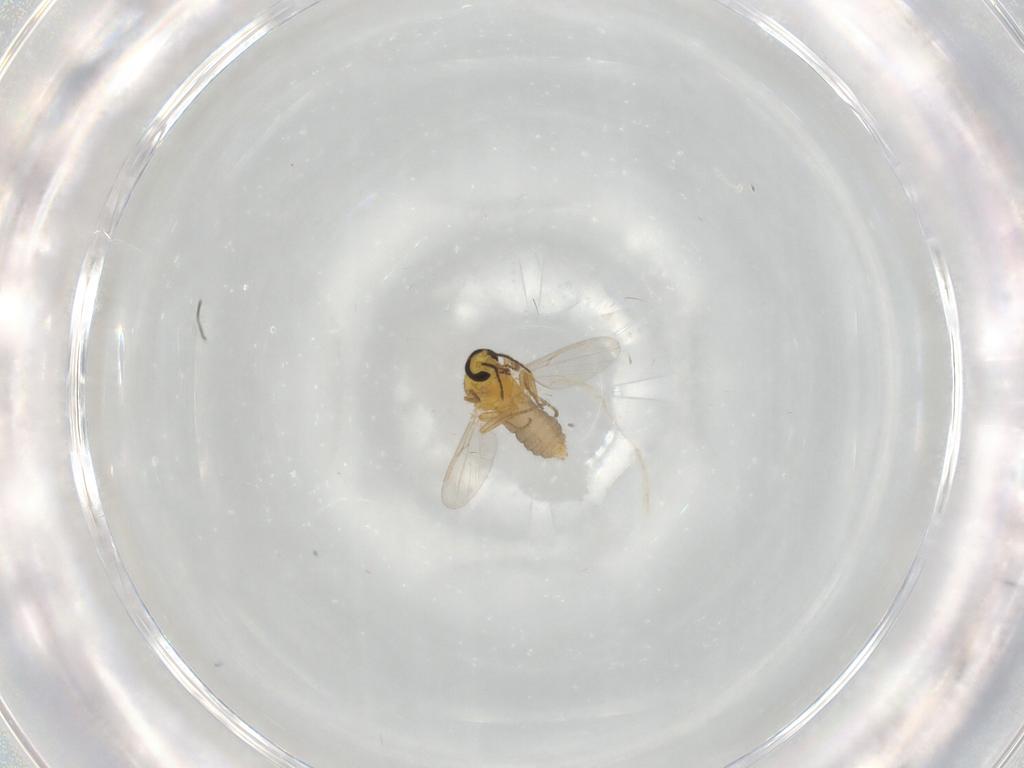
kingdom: Animalia
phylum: Arthropoda
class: Insecta
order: Diptera
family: Ceratopogonidae
